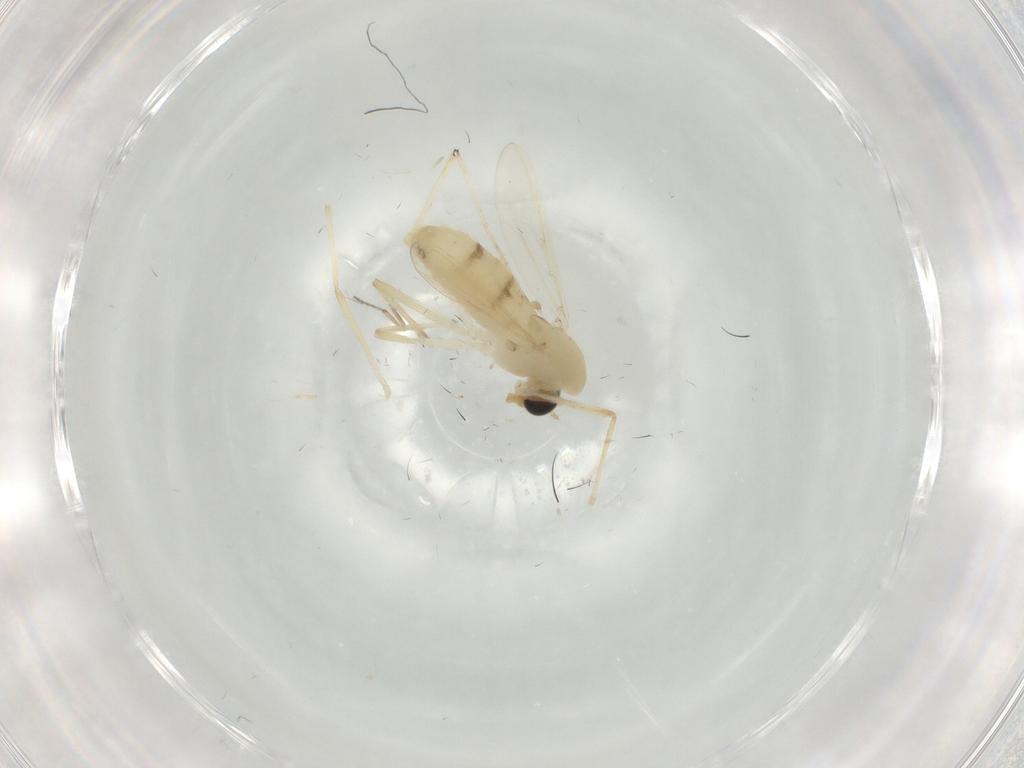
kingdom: Animalia
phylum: Arthropoda
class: Insecta
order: Diptera
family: Chironomidae
